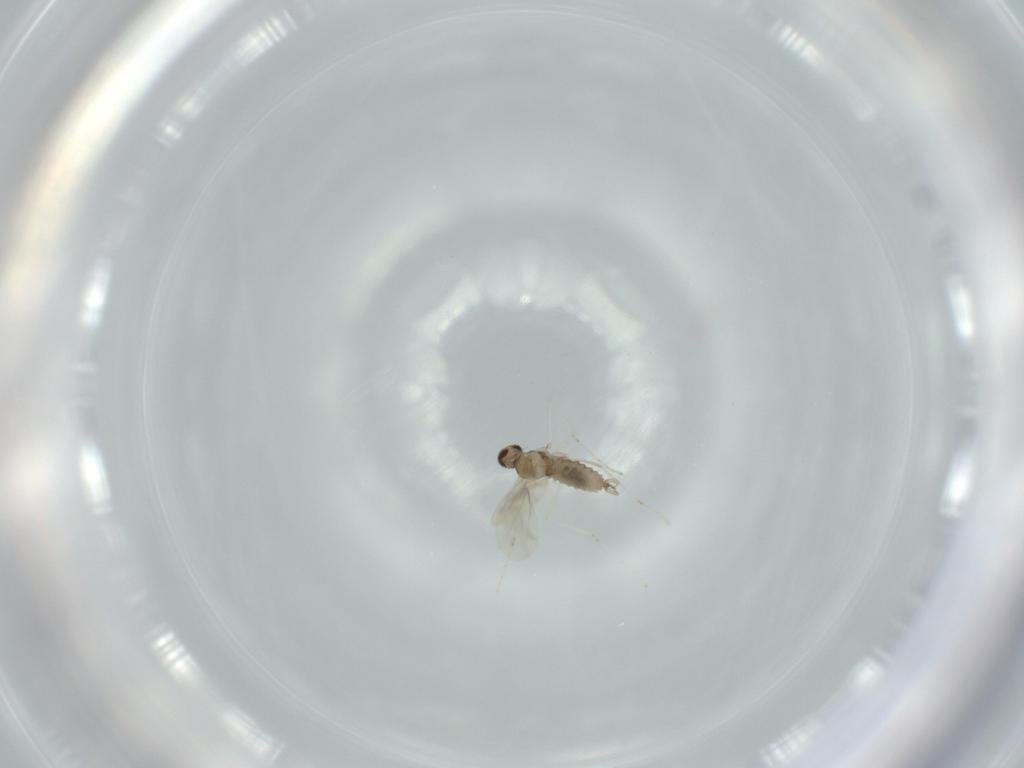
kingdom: Animalia
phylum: Arthropoda
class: Insecta
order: Diptera
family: Cecidomyiidae
